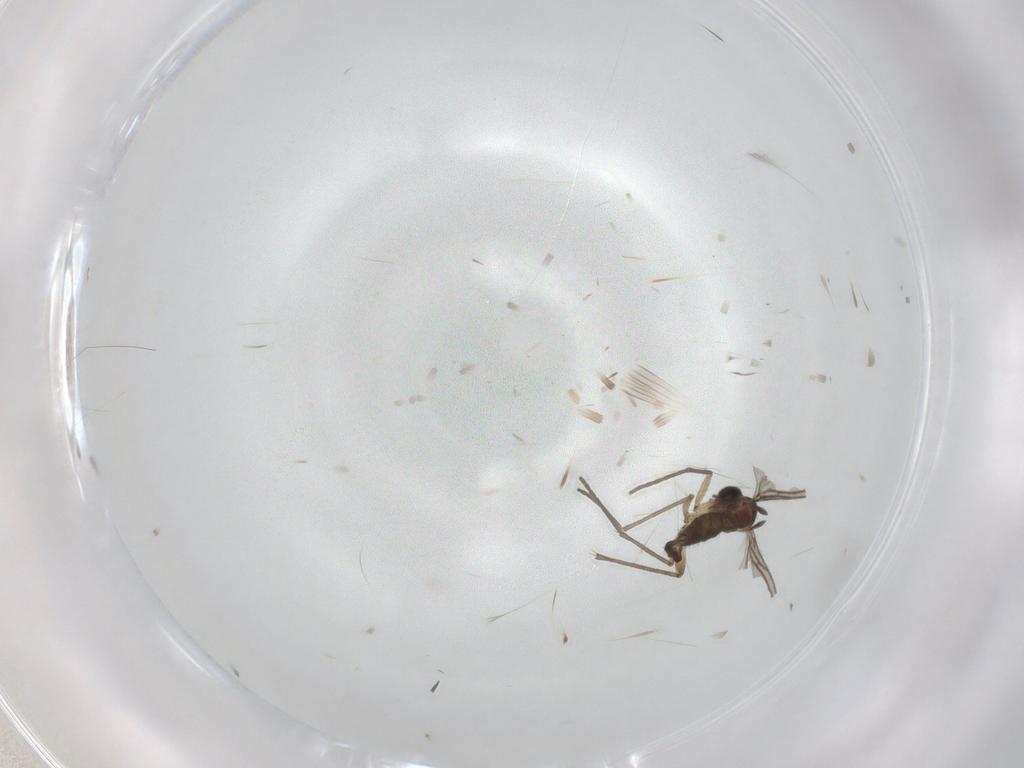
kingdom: Animalia
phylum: Arthropoda
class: Insecta
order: Diptera
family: Sciaridae
